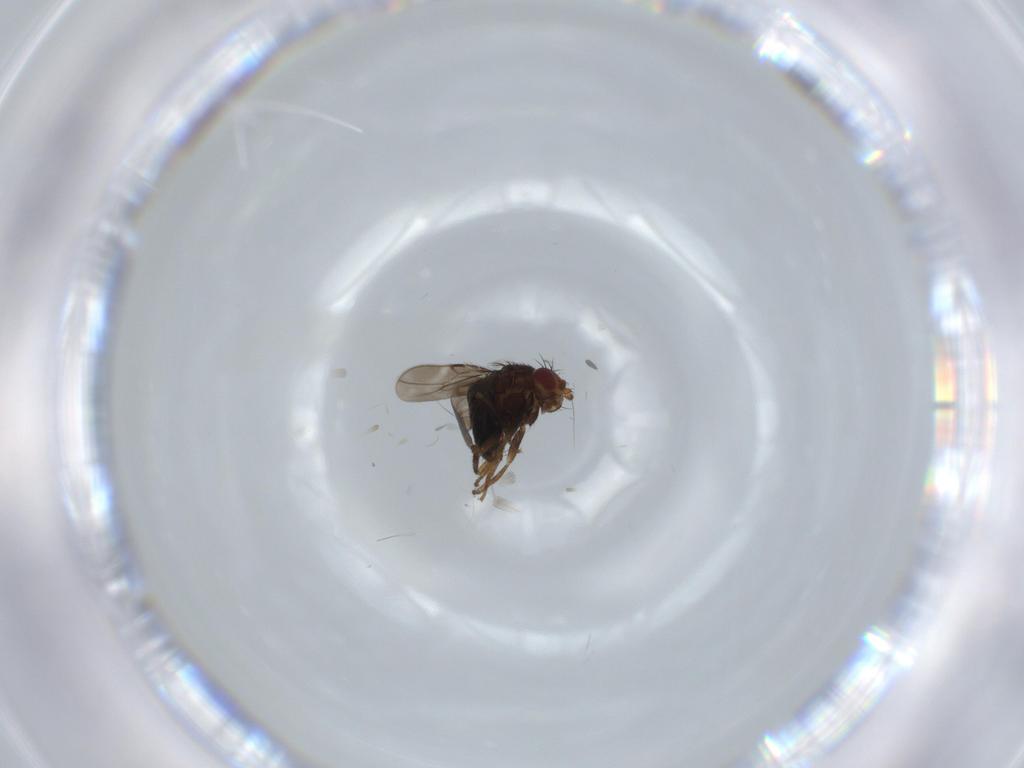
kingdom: Animalia
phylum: Arthropoda
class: Insecta
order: Diptera
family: Sphaeroceridae
